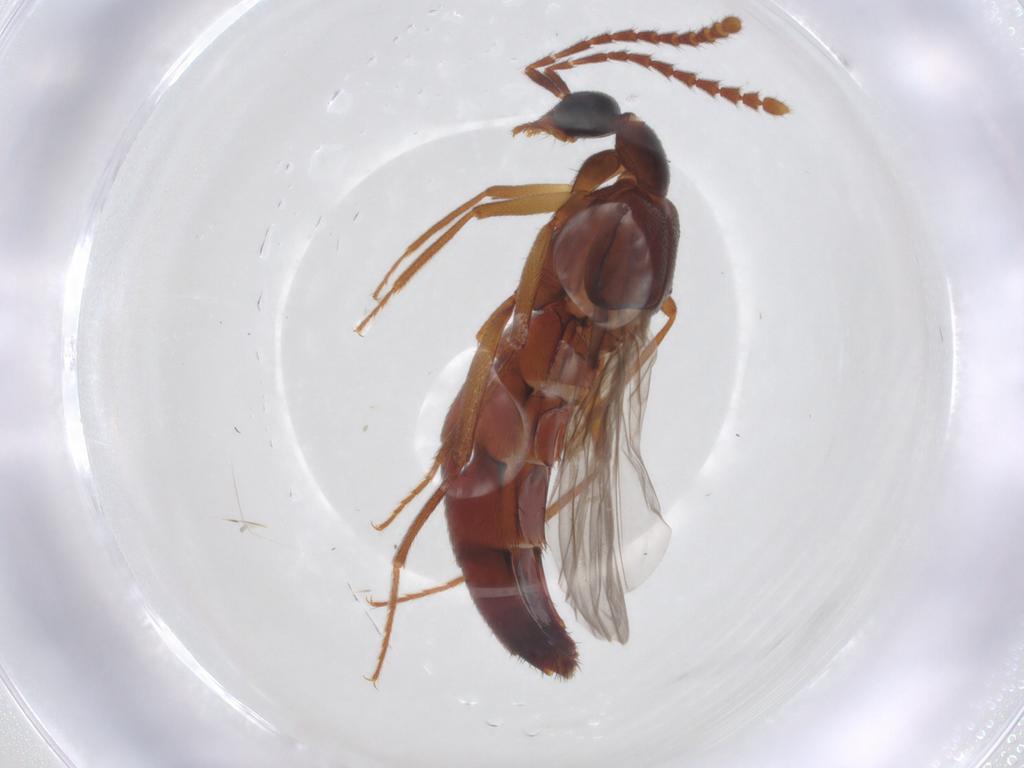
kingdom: Animalia
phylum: Arthropoda
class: Insecta
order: Coleoptera
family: Staphylinidae
